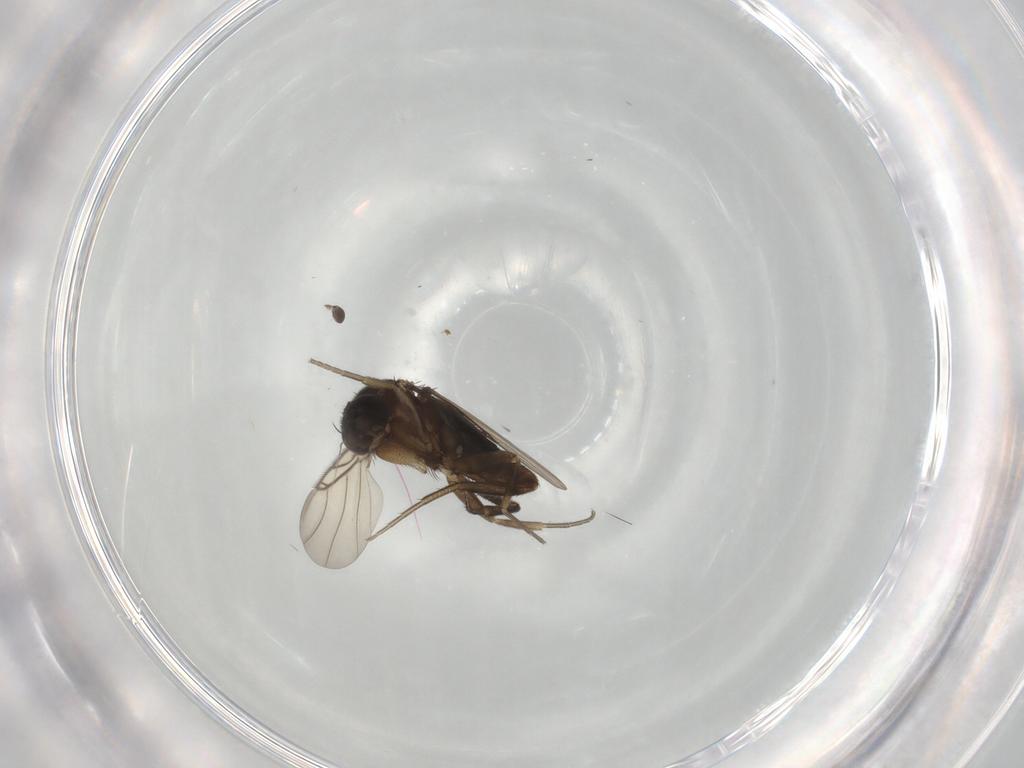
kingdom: Animalia
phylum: Arthropoda
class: Insecta
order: Diptera
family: Phoridae
